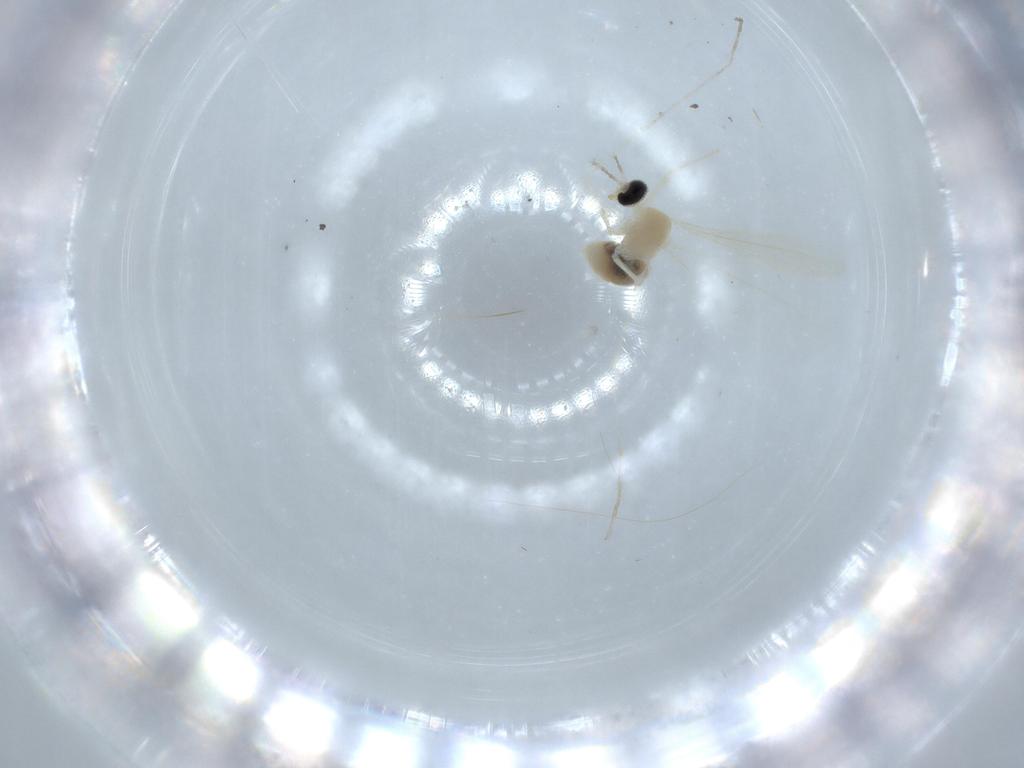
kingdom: Animalia
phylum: Arthropoda
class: Insecta
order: Diptera
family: Cecidomyiidae
